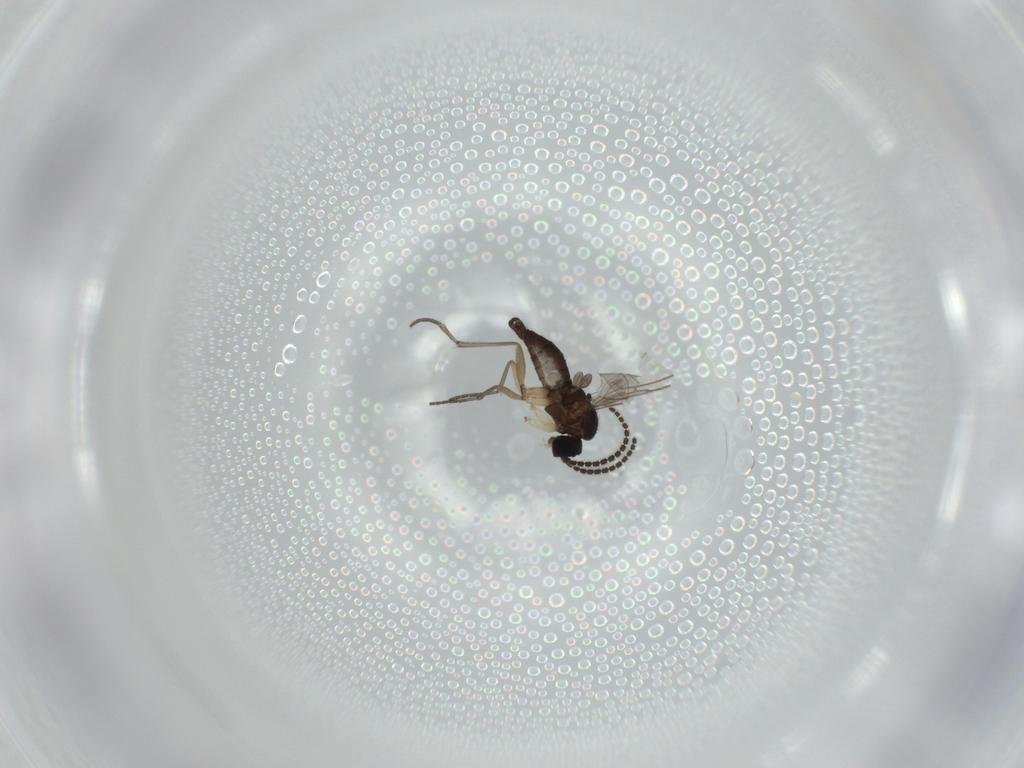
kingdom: Animalia
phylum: Arthropoda
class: Insecta
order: Diptera
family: Sciaridae
